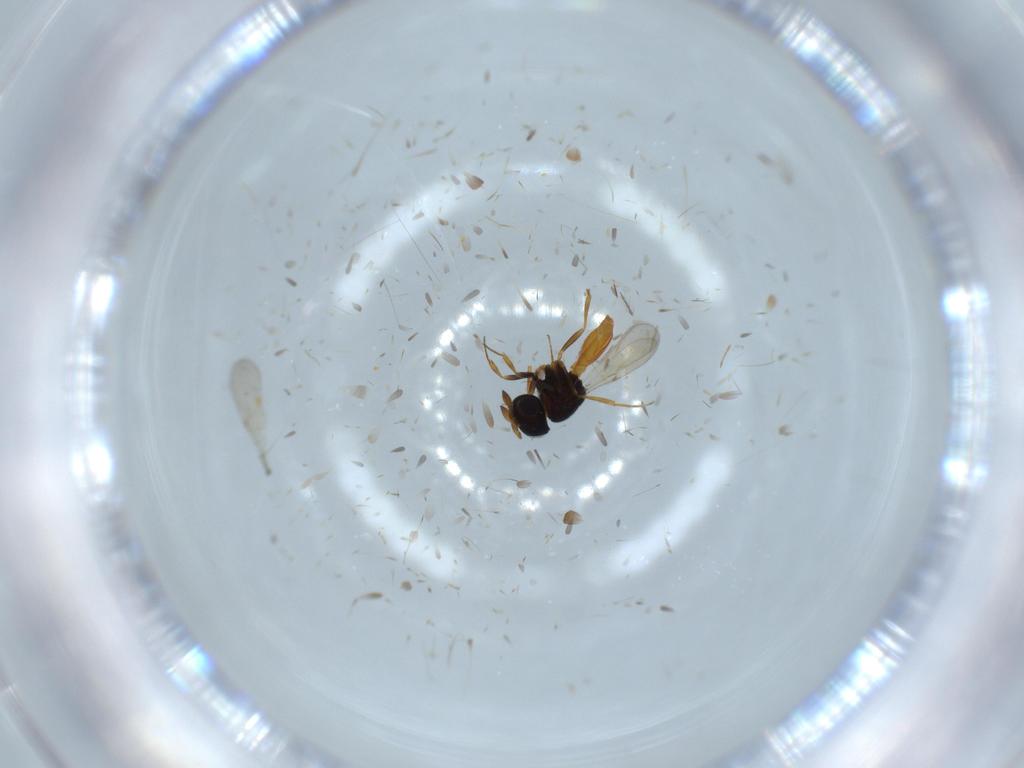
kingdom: Animalia
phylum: Arthropoda
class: Insecta
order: Hymenoptera
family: Scelionidae
